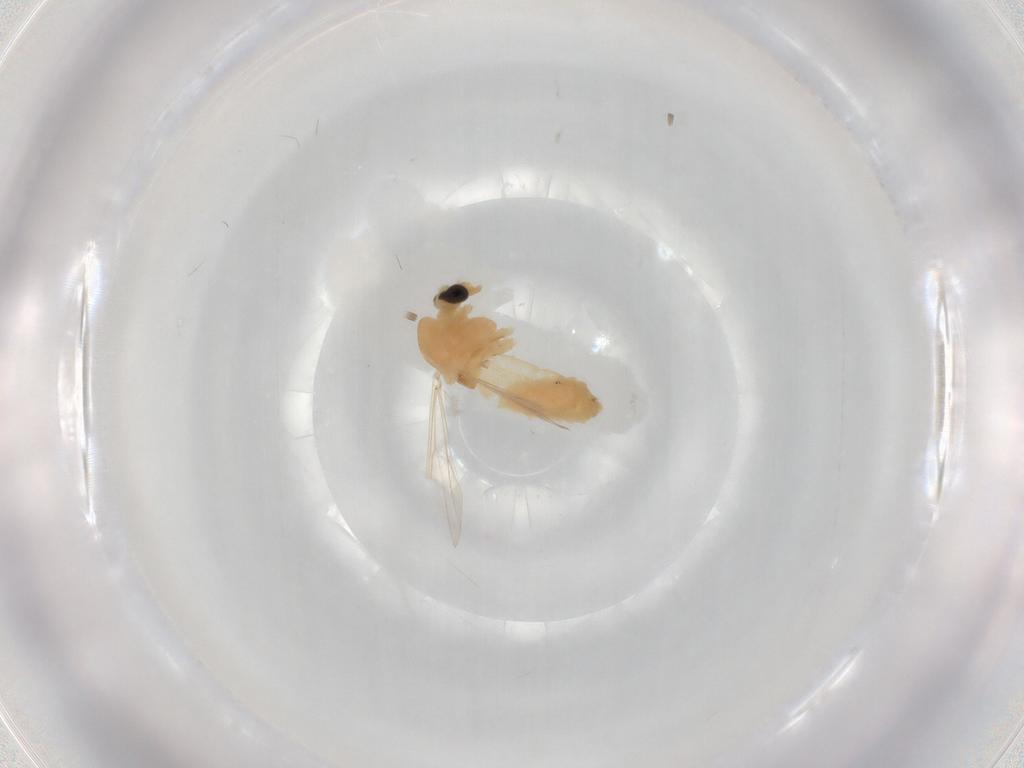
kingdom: Animalia
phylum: Arthropoda
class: Insecta
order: Diptera
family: Chironomidae
